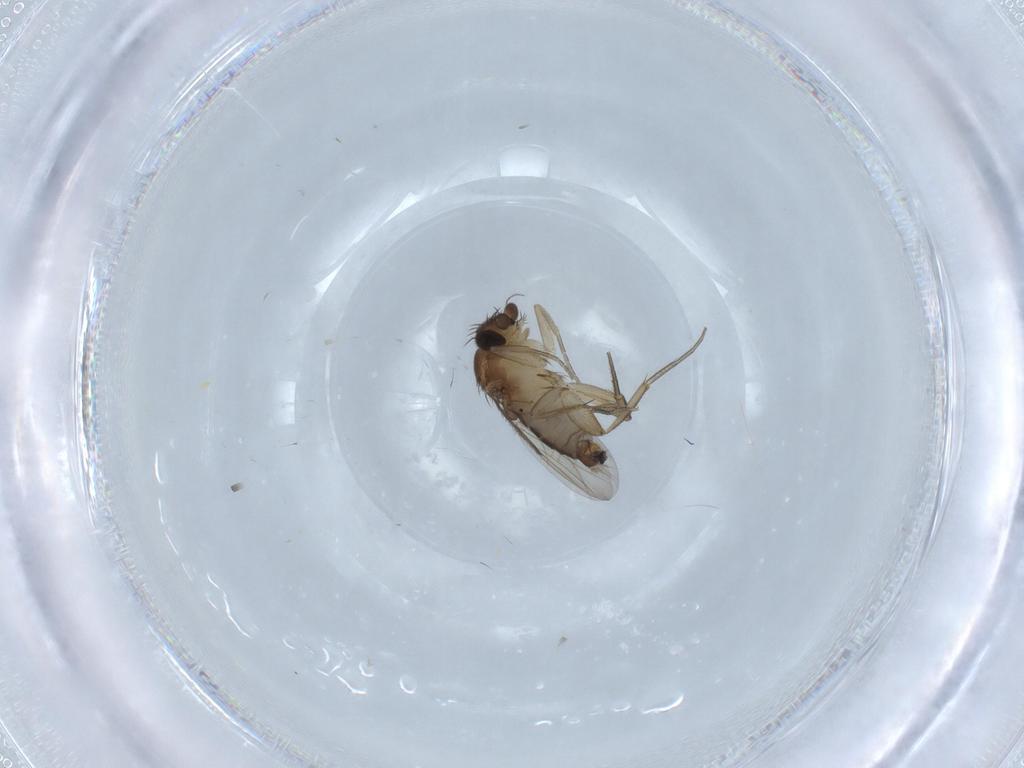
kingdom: Animalia
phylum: Arthropoda
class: Insecta
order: Diptera
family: Phoridae
